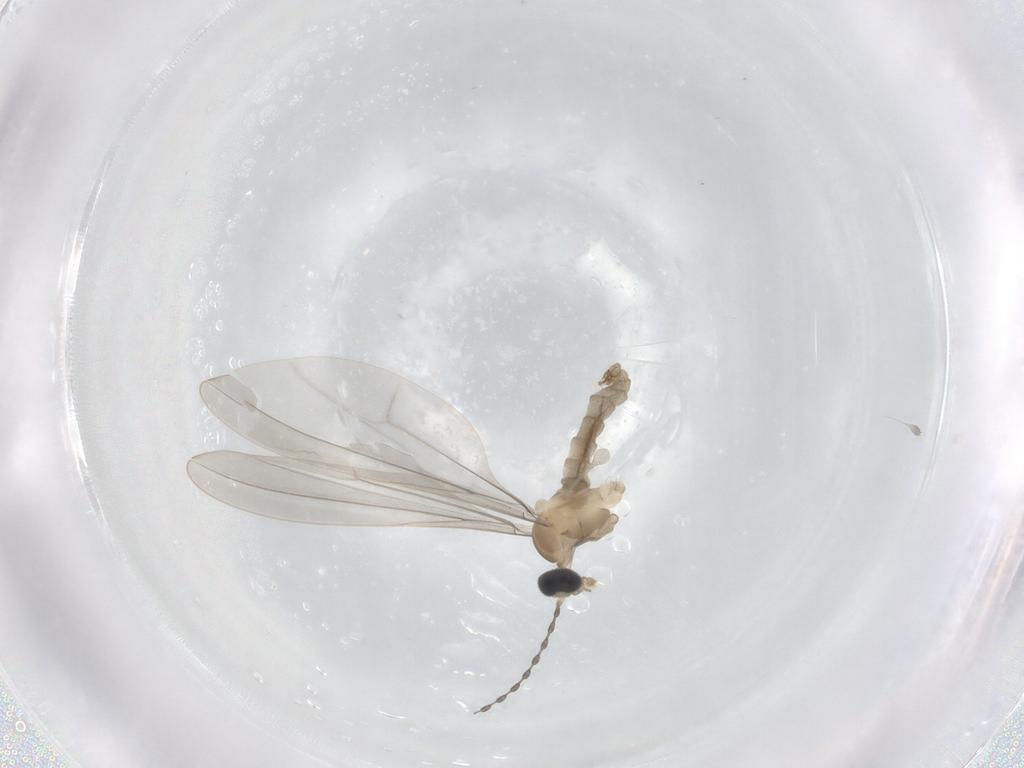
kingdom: Animalia
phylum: Arthropoda
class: Insecta
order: Diptera
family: Cecidomyiidae
